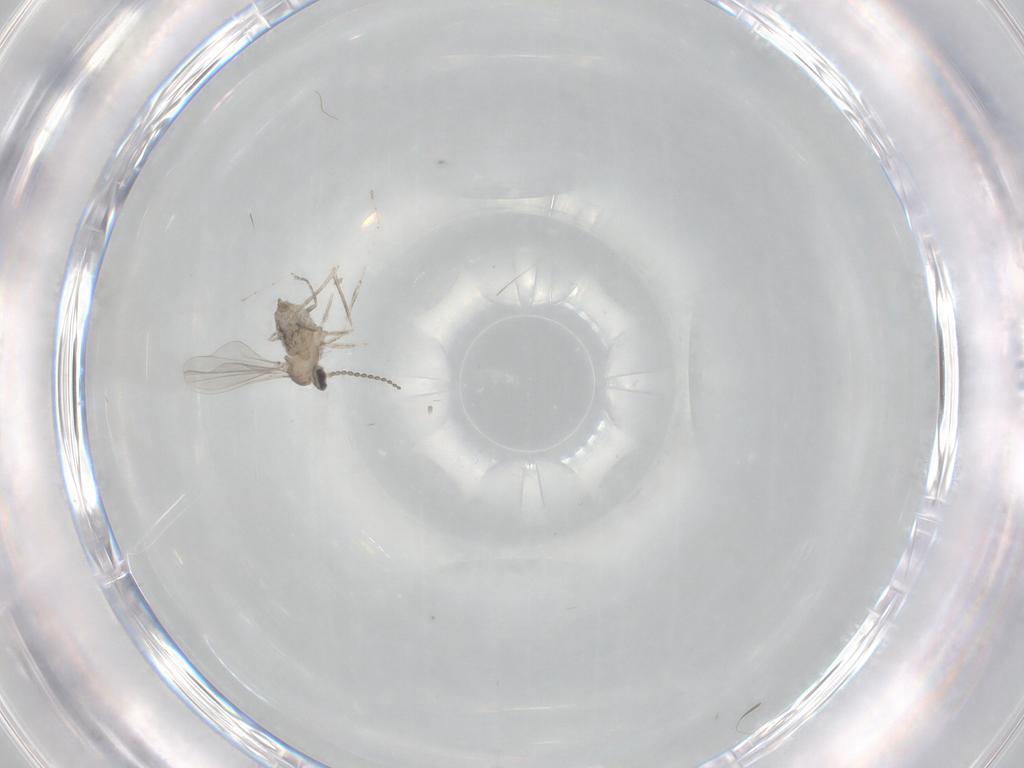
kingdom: Animalia
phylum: Arthropoda
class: Insecta
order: Diptera
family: Cecidomyiidae
